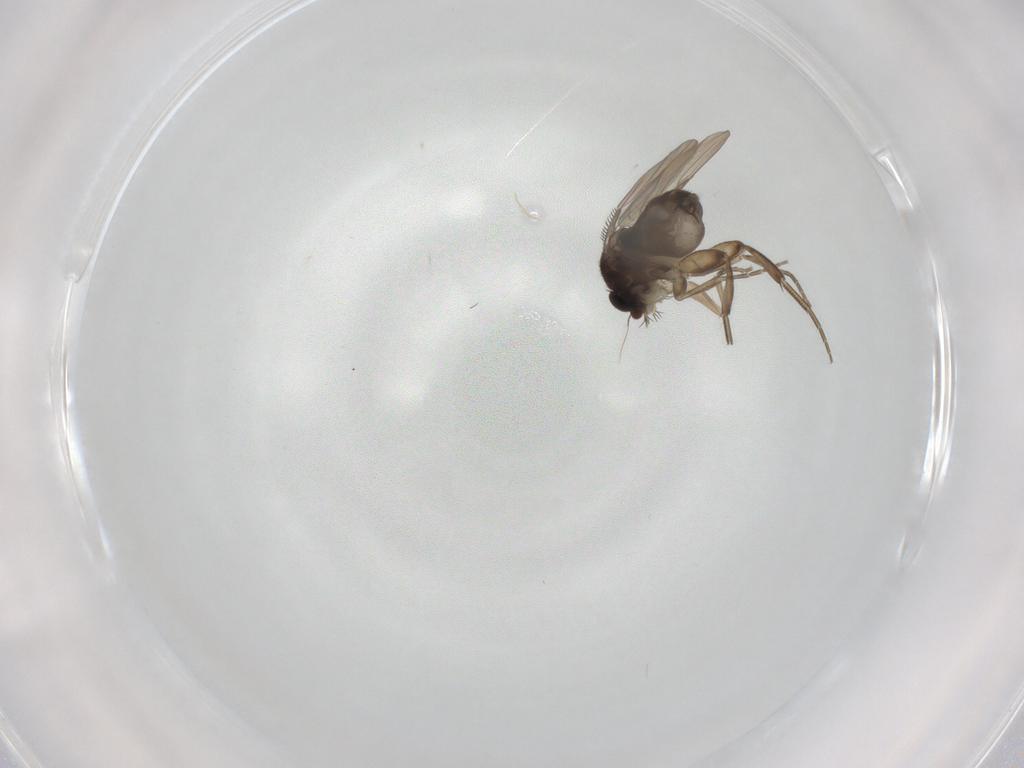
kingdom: Animalia
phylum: Arthropoda
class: Insecta
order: Diptera
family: Phoridae
